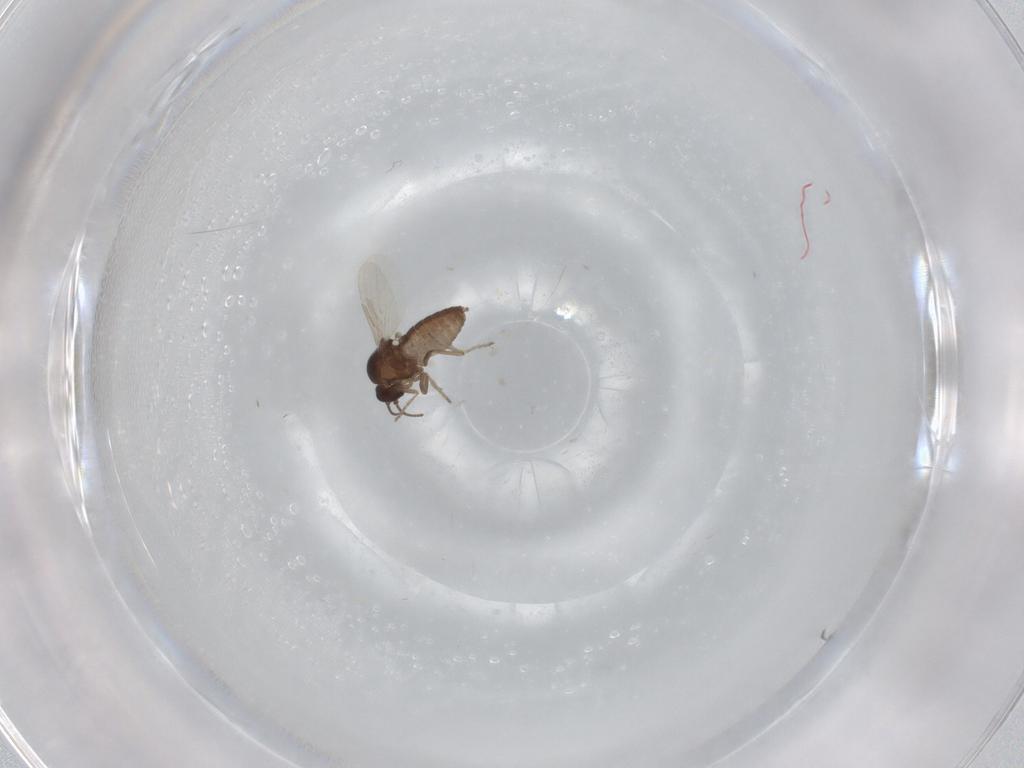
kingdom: Animalia
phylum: Arthropoda
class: Insecta
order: Diptera
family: Ceratopogonidae
